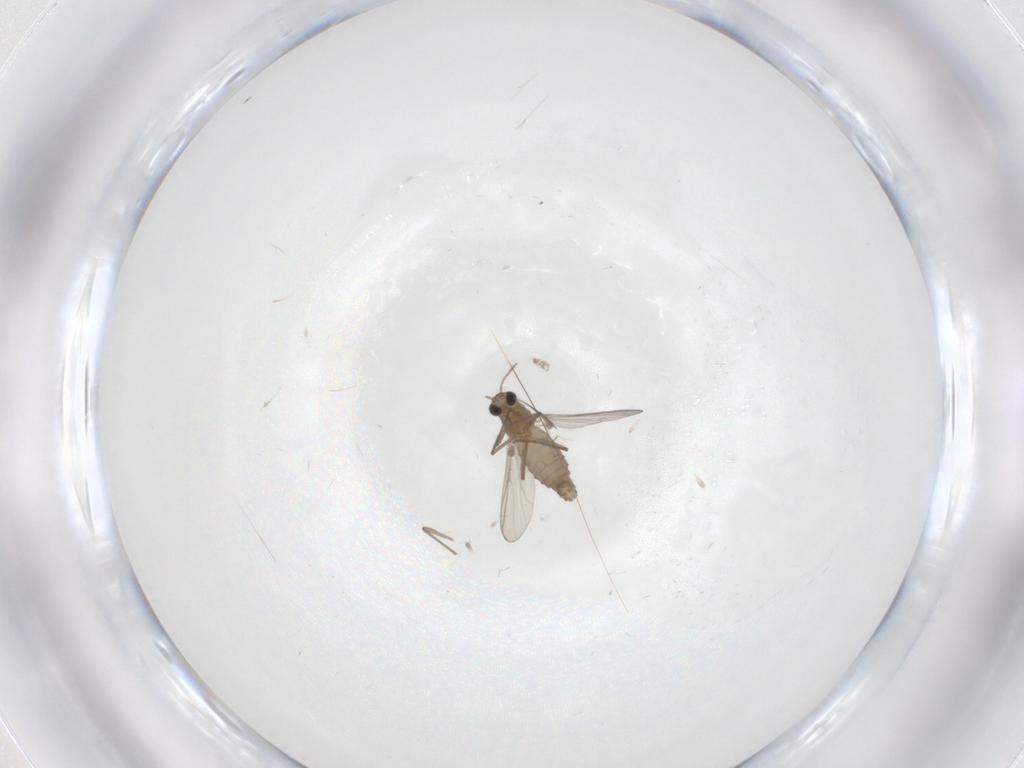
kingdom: Animalia
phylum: Arthropoda
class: Insecta
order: Diptera
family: Chironomidae
